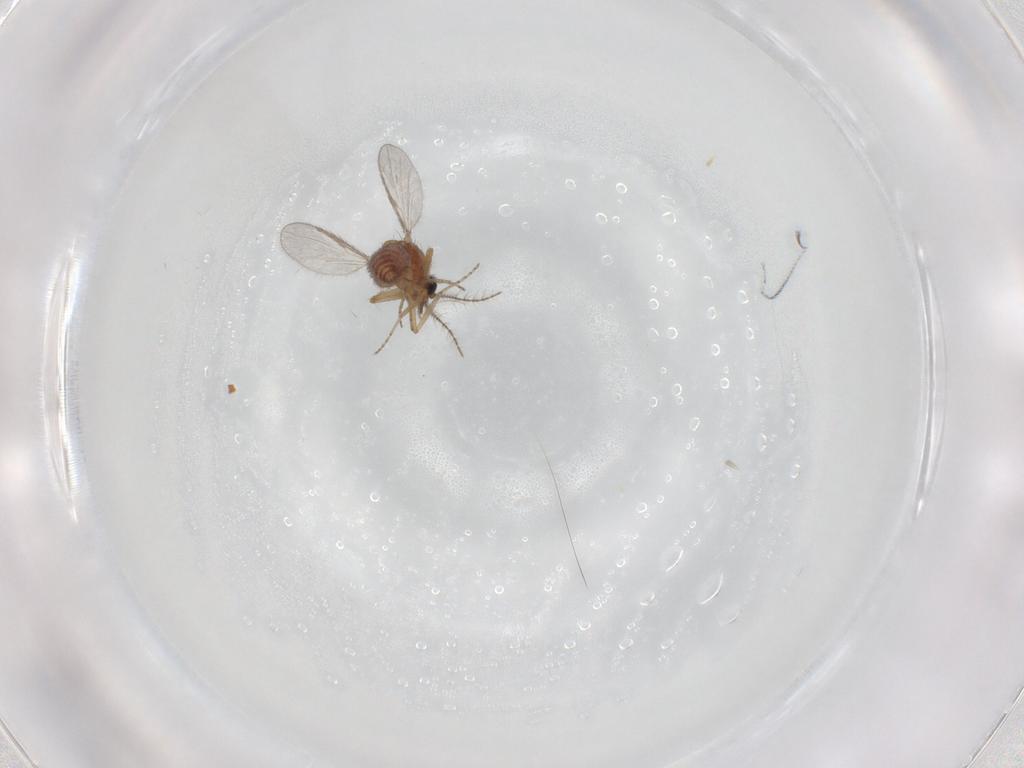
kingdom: Animalia
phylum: Arthropoda
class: Insecta
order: Diptera
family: Ceratopogonidae
